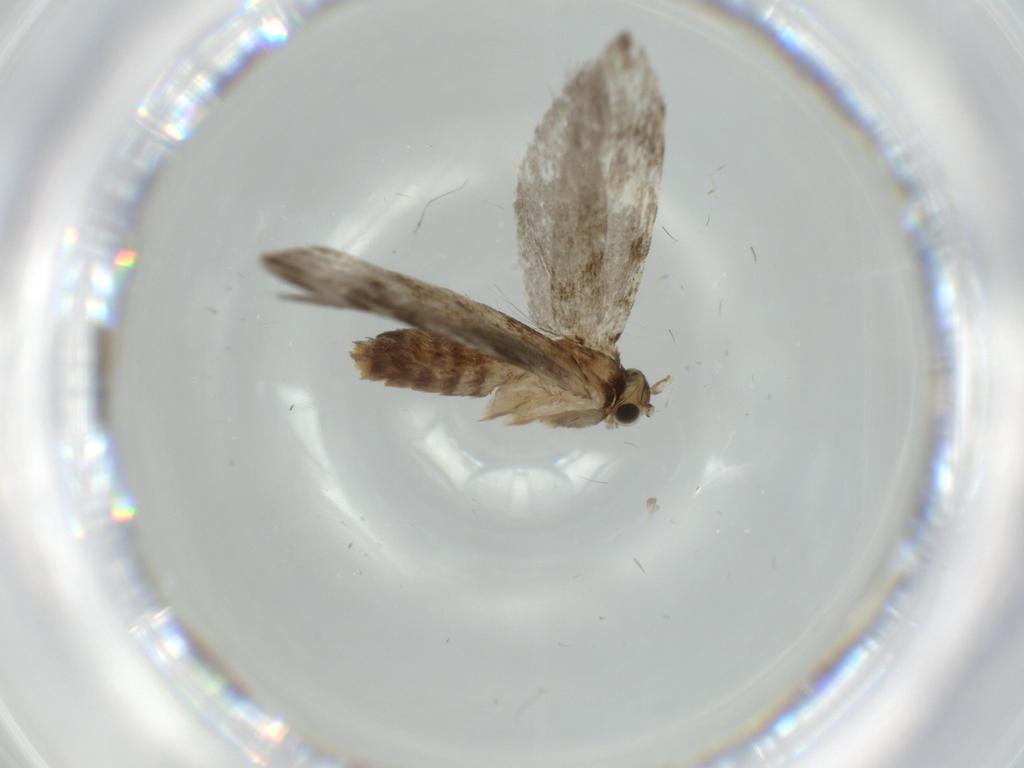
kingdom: Animalia
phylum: Arthropoda
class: Insecta
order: Lepidoptera
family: Tineidae
